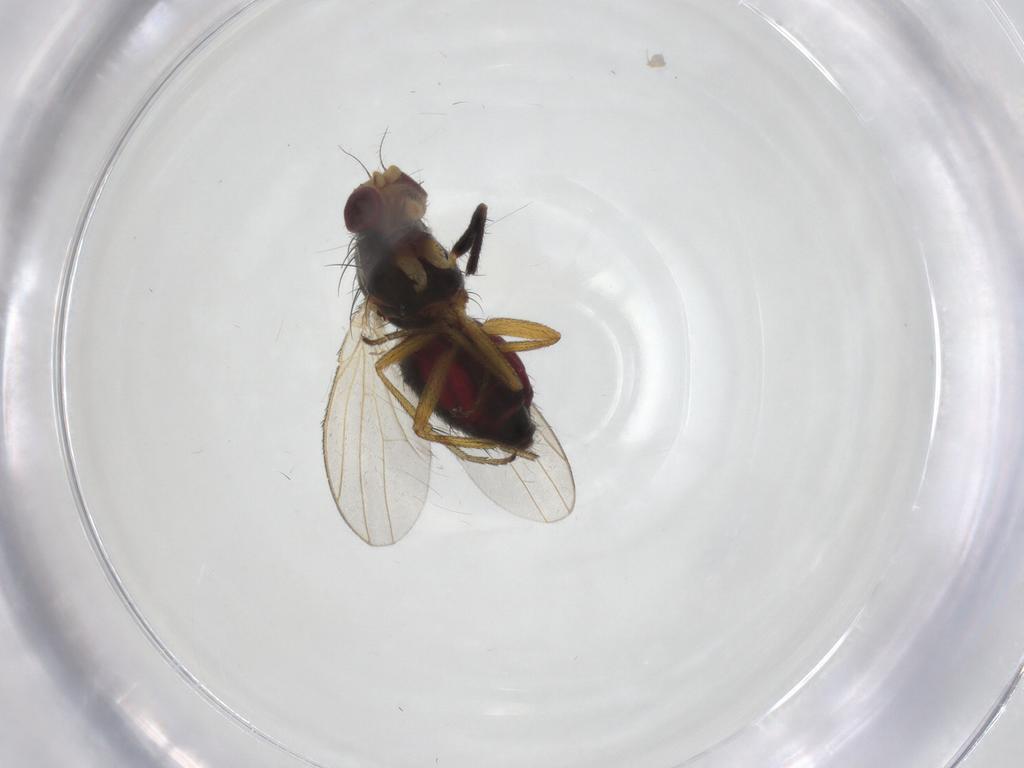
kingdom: Animalia
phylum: Arthropoda
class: Insecta
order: Diptera
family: Heleomyzidae
